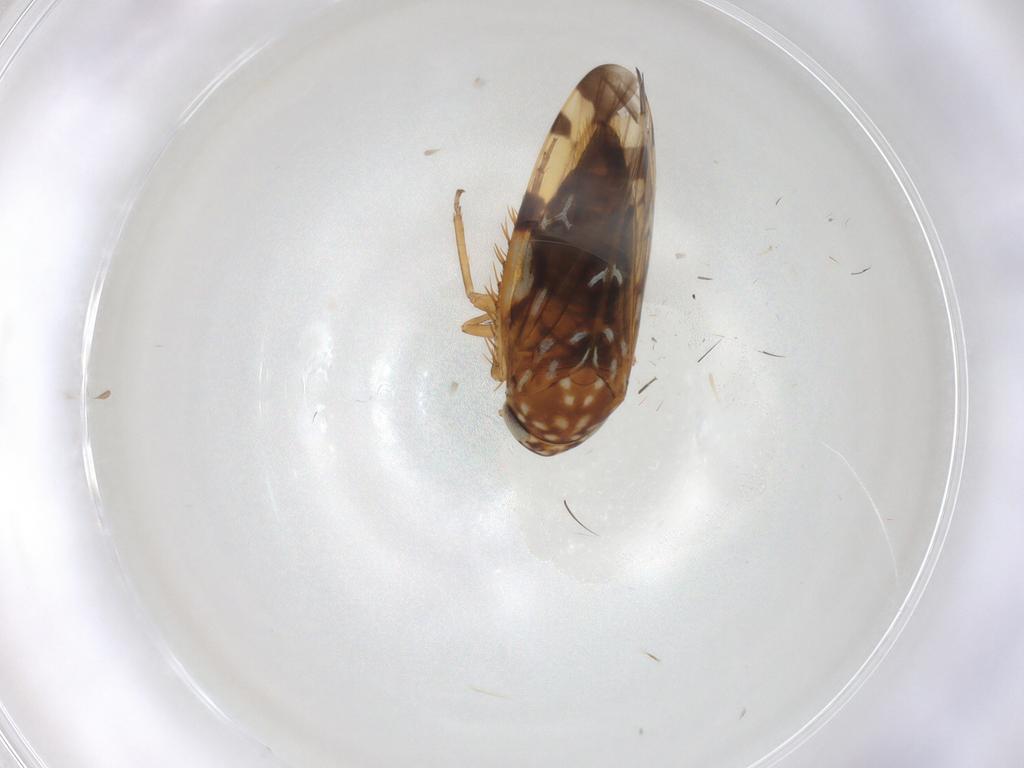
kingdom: Animalia
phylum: Arthropoda
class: Insecta
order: Hemiptera
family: Cicadellidae
